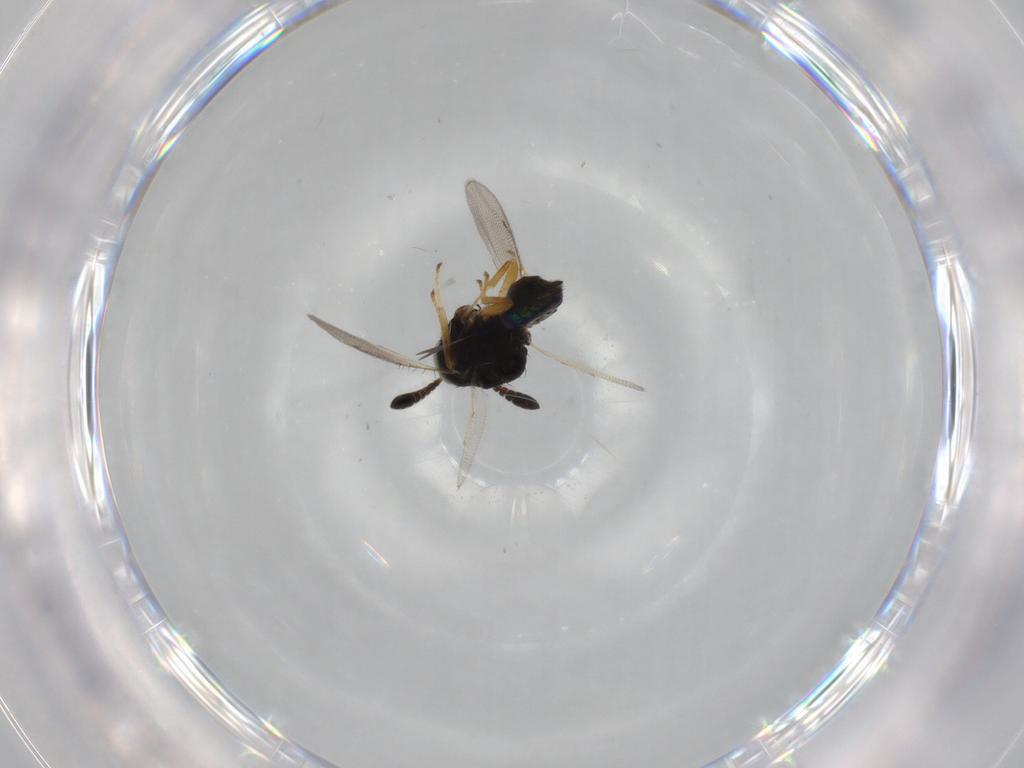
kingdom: Animalia
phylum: Arthropoda
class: Insecta
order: Hymenoptera
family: Pteromalidae
